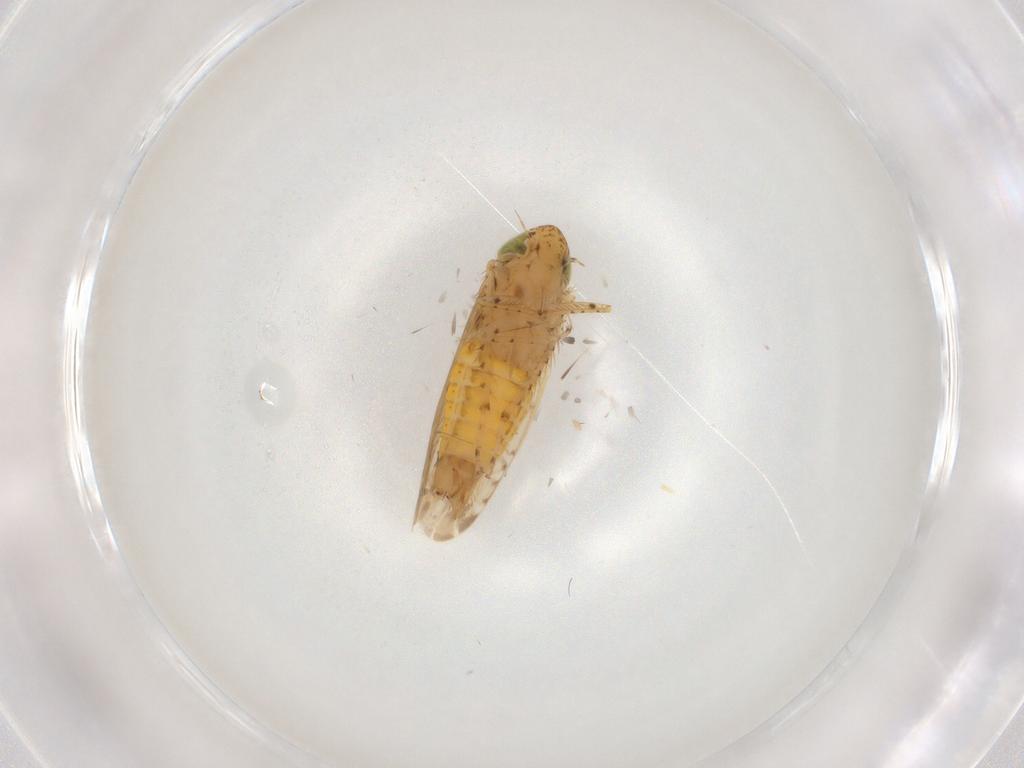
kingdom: Animalia
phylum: Arthropoda
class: Insecta
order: Hemiptera
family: Cicadellidae
